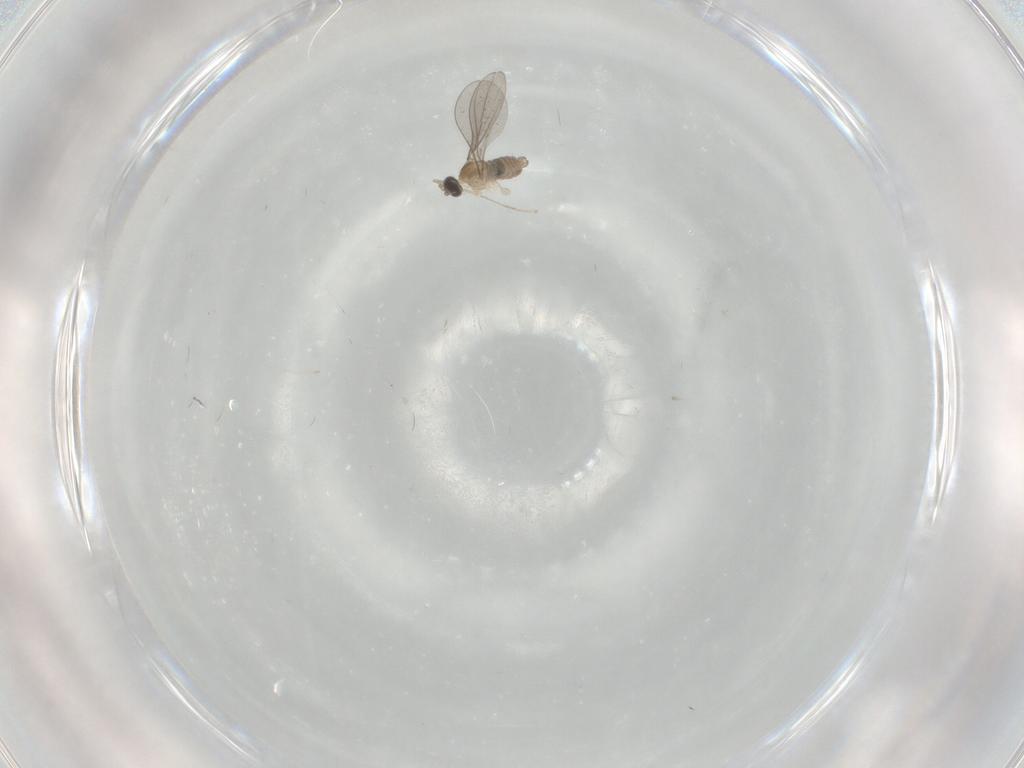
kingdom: Animalia
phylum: Arthropoda
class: Insecta
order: Diptera
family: Cecidomyiidae
